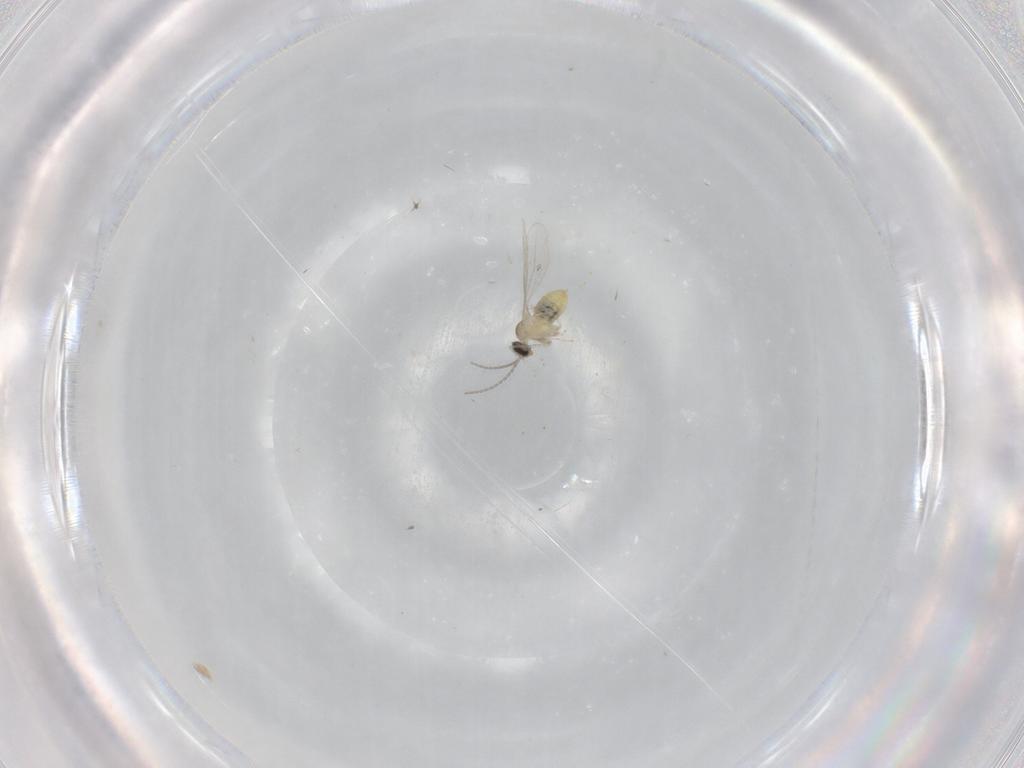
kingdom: Animalia
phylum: Arthropoda
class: Insecta
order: Diptera
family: Cecidomyiidae
